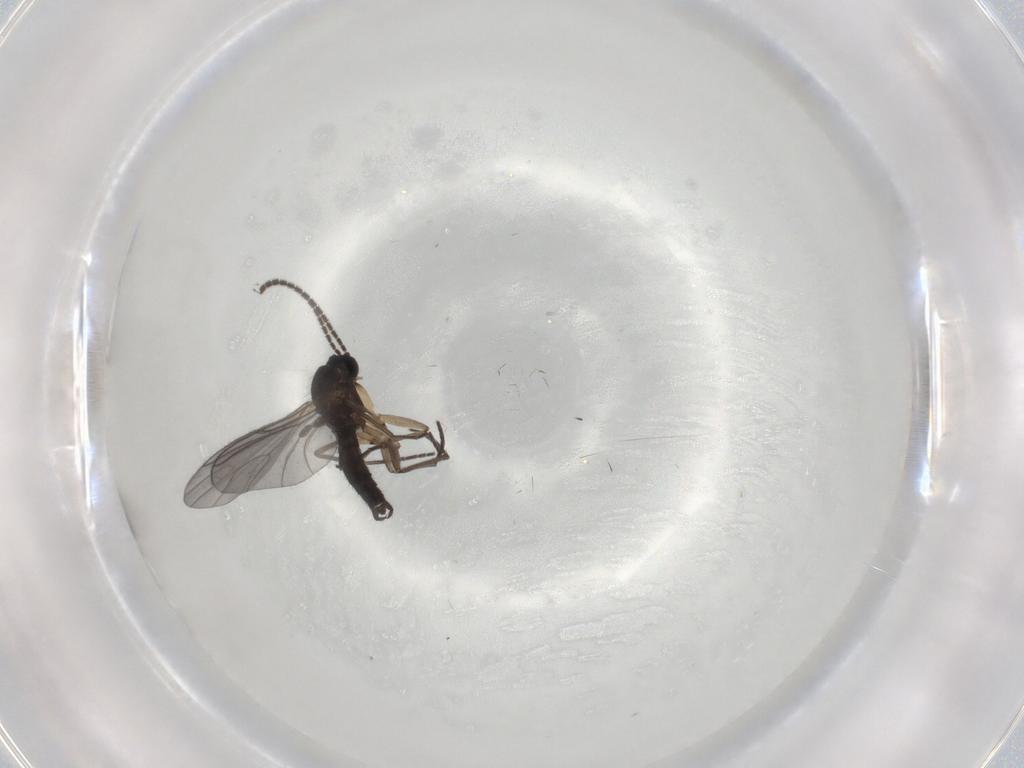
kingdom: Animalia
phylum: Arthropoda
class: Insecta
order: Diptera
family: Sciaridae
